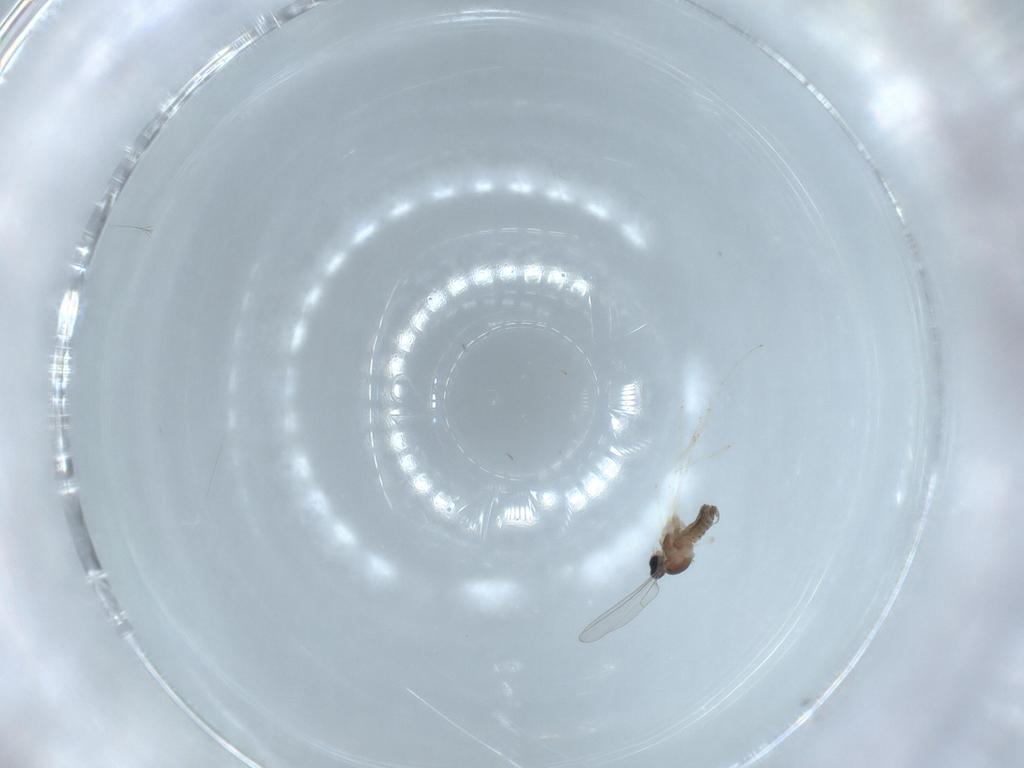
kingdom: Animalia
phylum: Arthropoda
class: Insecta
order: Diptera
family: Cecidomyiidae
